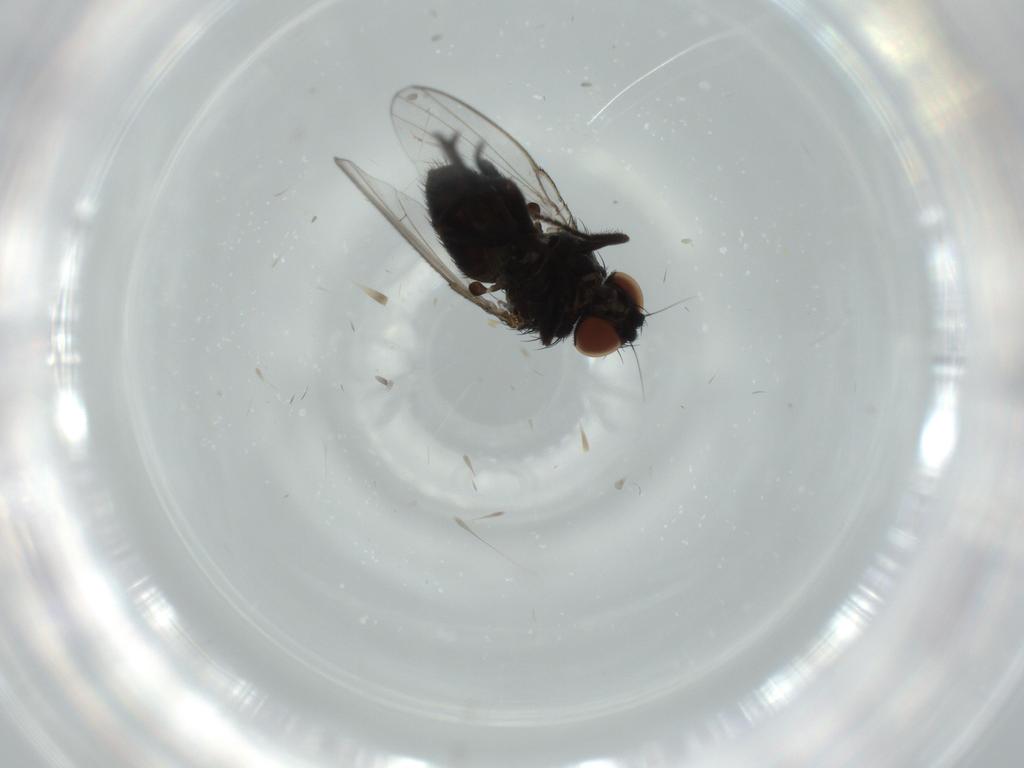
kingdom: Animalia
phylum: Arthropoda
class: Insecta
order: Diptera
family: Milichiidae
